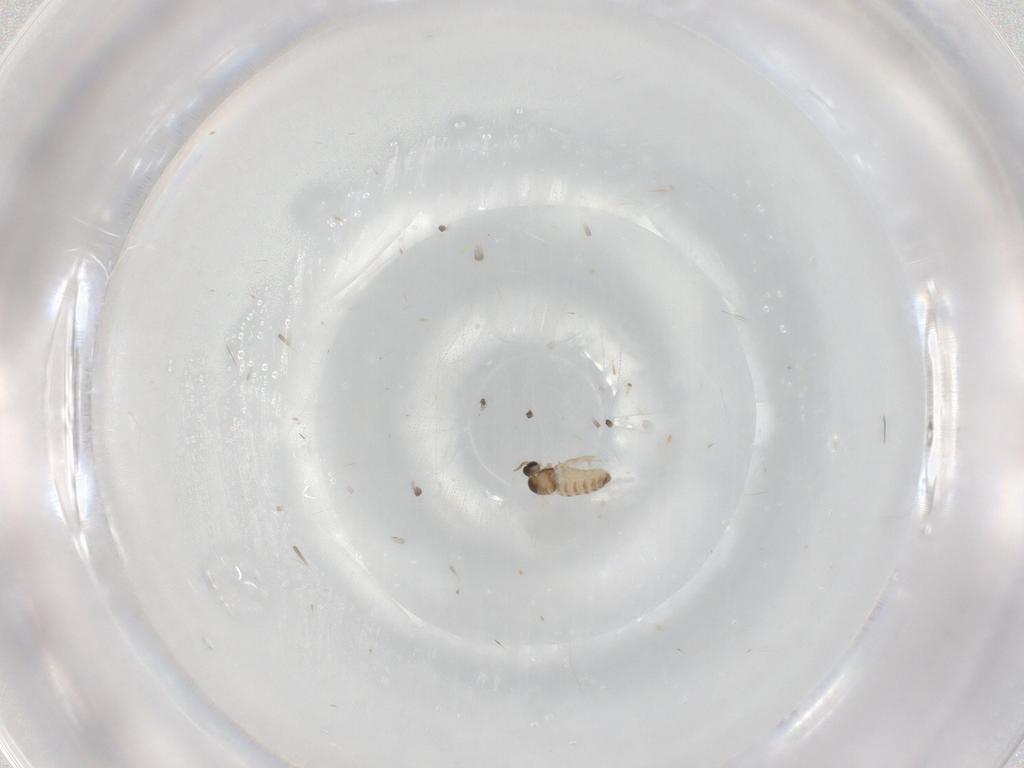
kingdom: Animalia
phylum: Arthropoda
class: Insecta
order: Diptera
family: Cecidomyiidae
